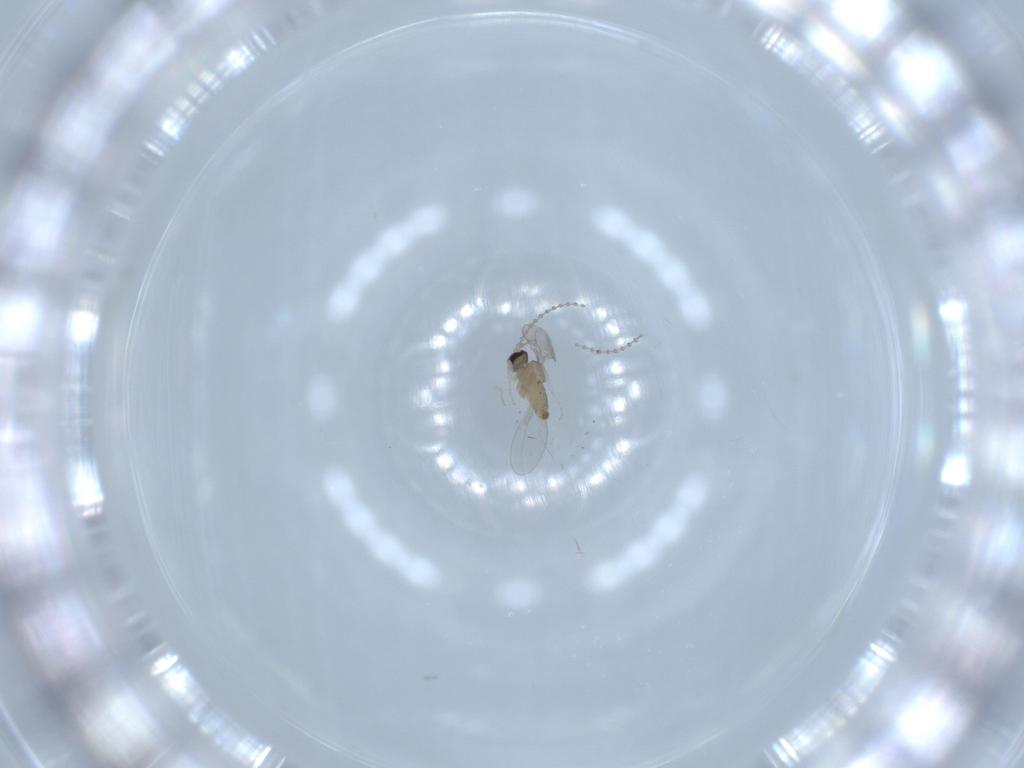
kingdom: Animalia
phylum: Arthropoda
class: Insecta
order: Diptera
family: Cecidomyiidae
